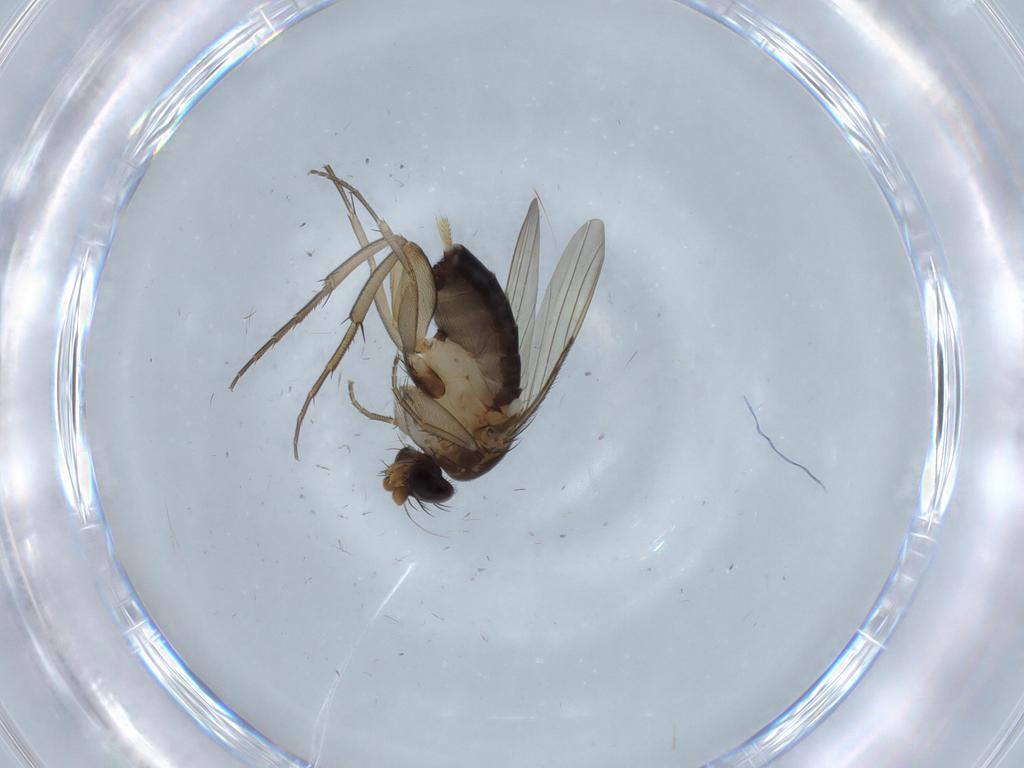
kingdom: Animalia
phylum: Arthropoda
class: Insecta
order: Diptera
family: Phoridae
